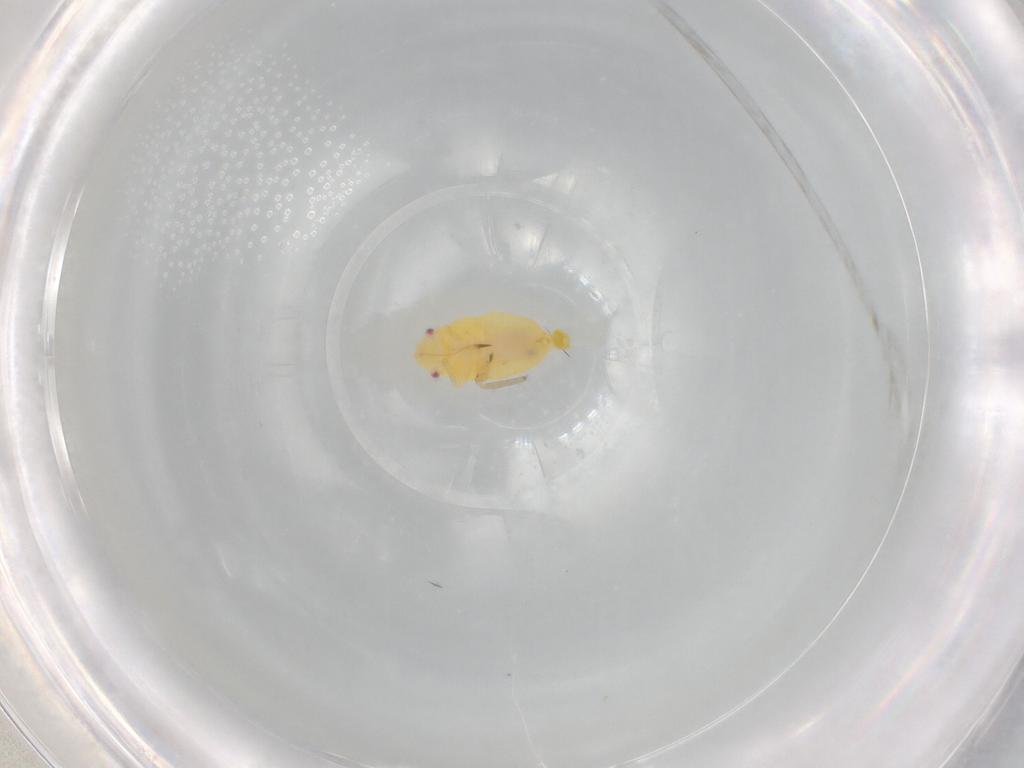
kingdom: Animalia
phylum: Arthropoda
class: Insecta
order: Hemiptera
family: Miridae
